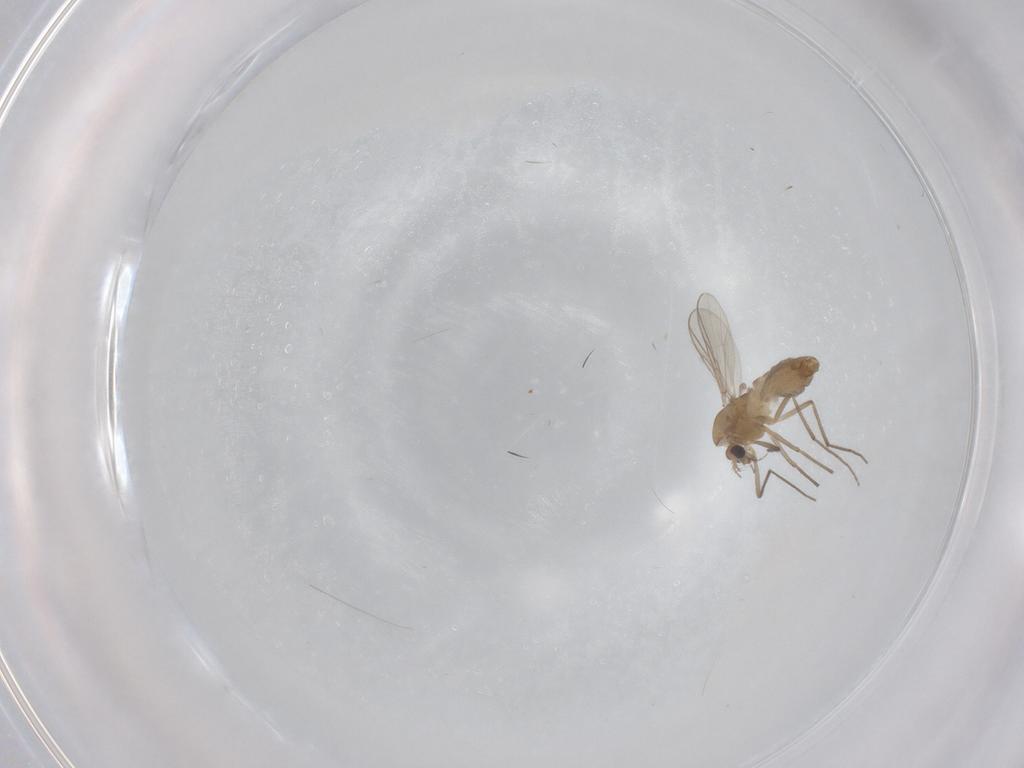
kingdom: Animalia
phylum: Arthropoda
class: Insecta
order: Diptera
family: Chironomidae
